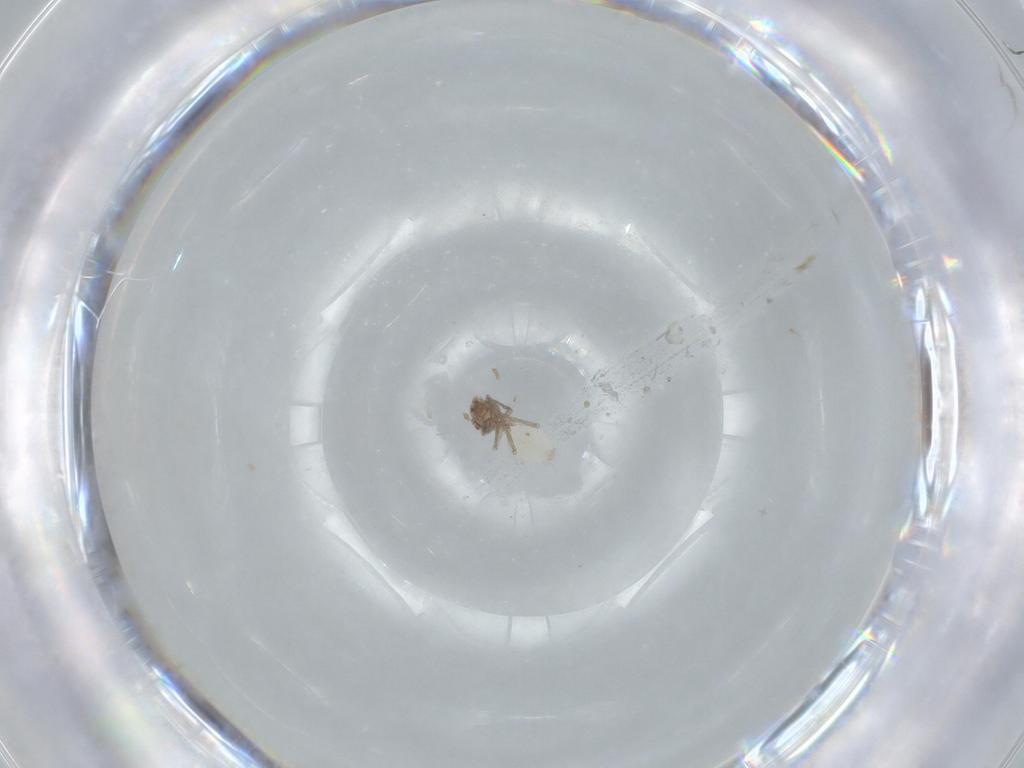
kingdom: Animalia
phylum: Arthropoda
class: Insecta
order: Psocodea
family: Lepidopsocidae
